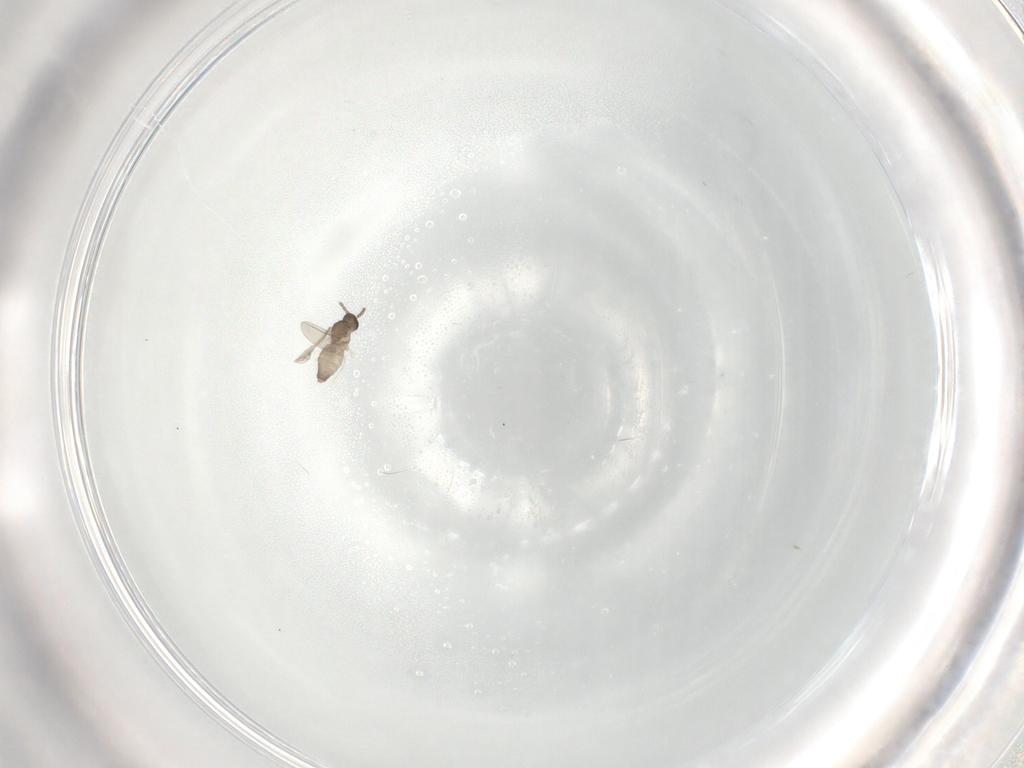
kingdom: Animalia
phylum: Arthropoda
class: Insecta
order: Diptera
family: Cecidomyiidae
